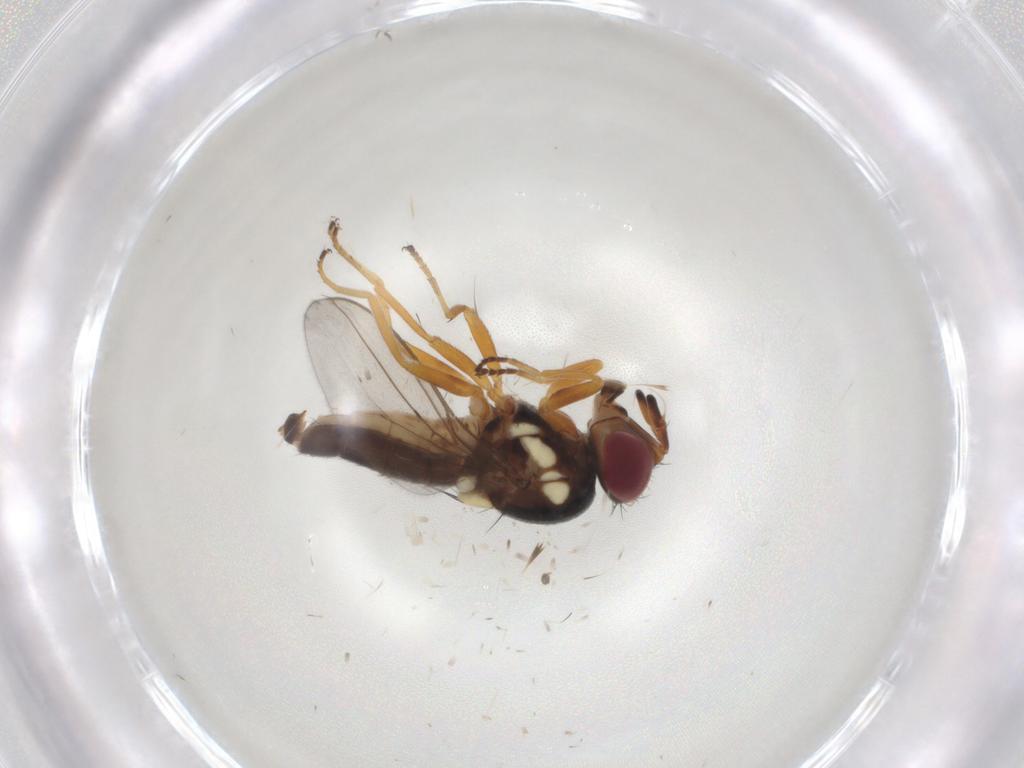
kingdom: Animalia
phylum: Arthropoda
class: Insecta
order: Diptera
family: Chloropidae
